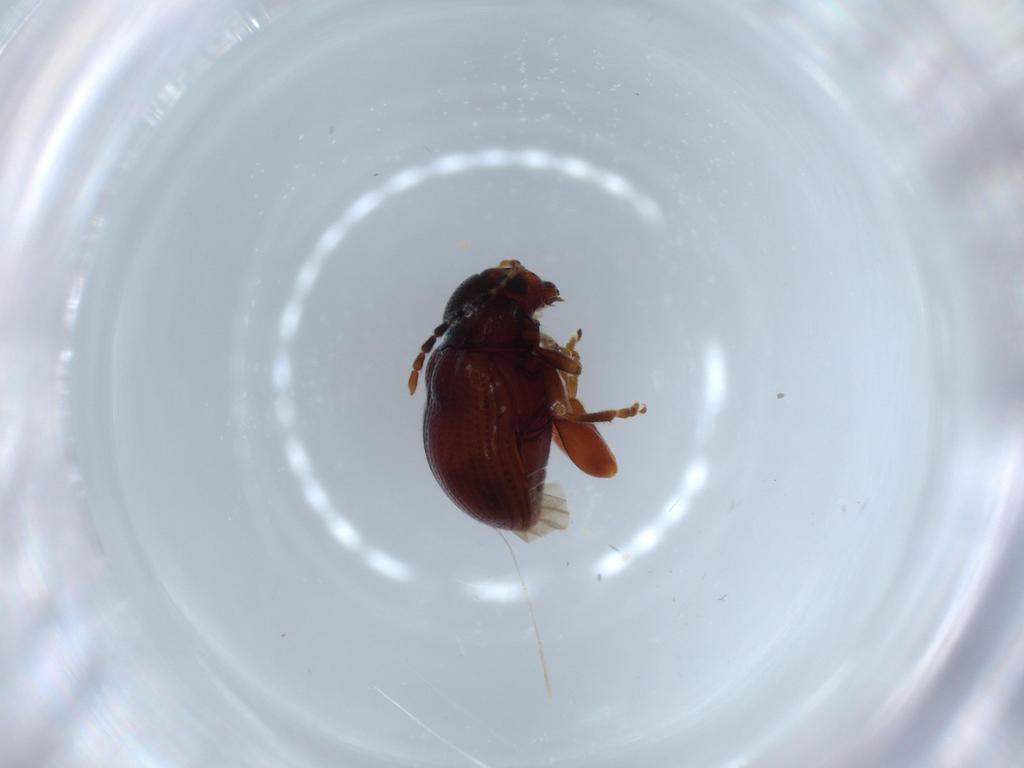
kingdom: Animalia
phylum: Arthropoda
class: Insecta
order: Coleoptera
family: Chrysomelidae
